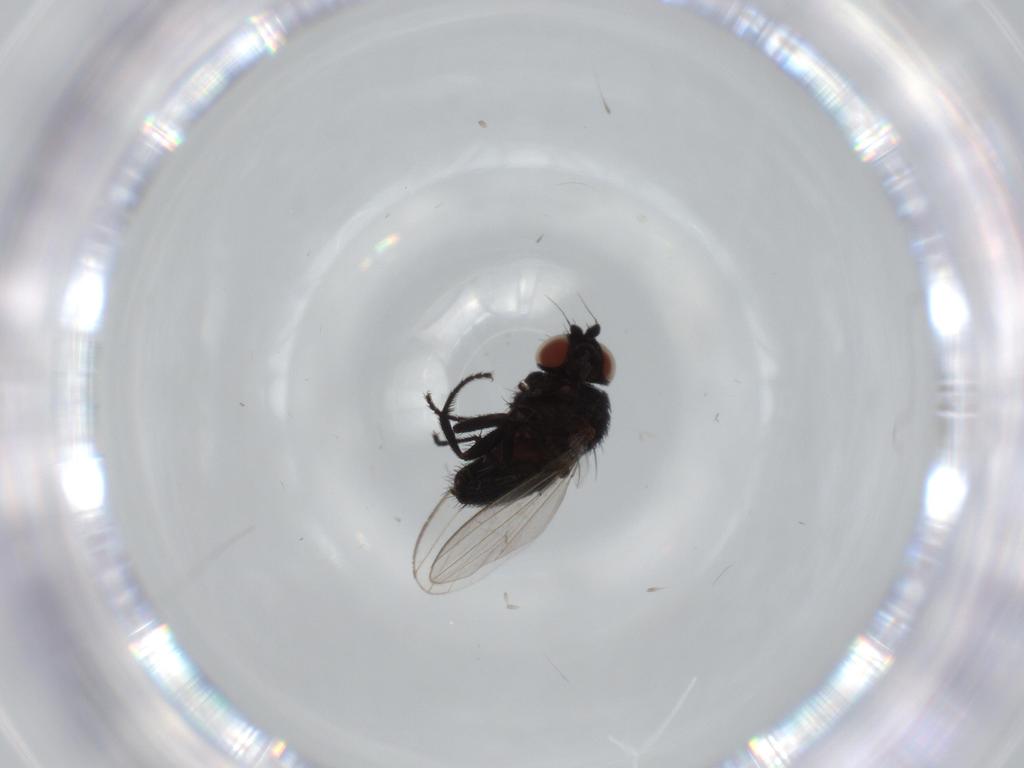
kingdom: Animalia
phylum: Arthropoda
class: Insecta
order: Diptera
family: Milichiidae
